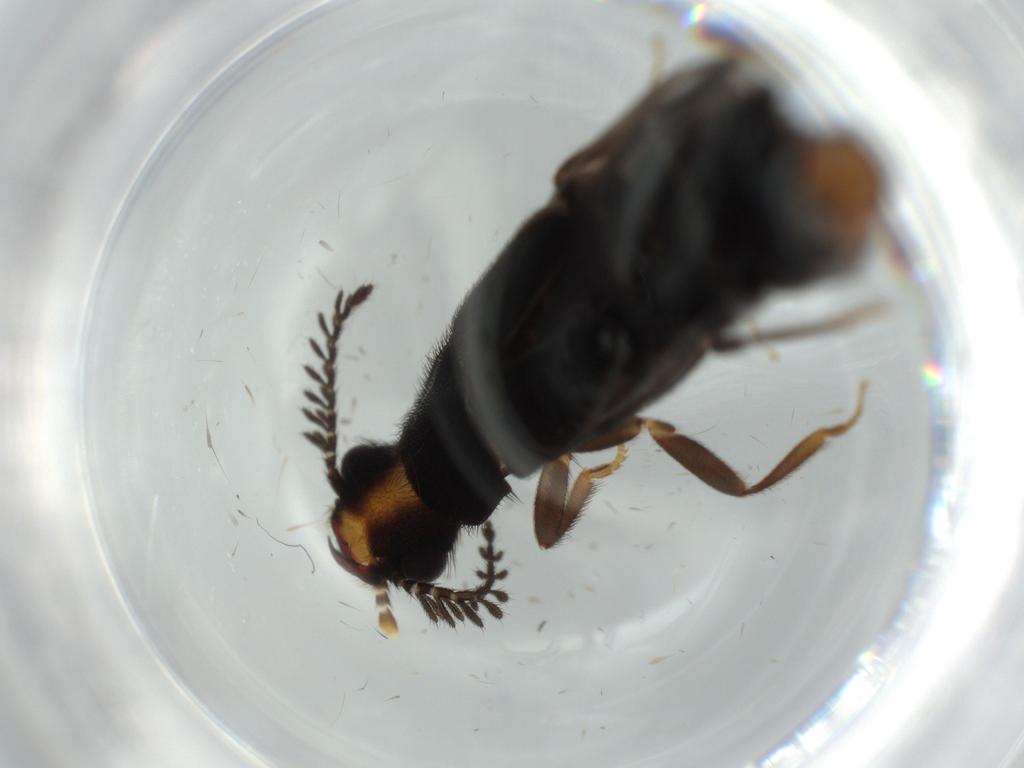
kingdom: Animalia
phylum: Arthropoda
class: Insecta
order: Coleoptera
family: Phengodidae
